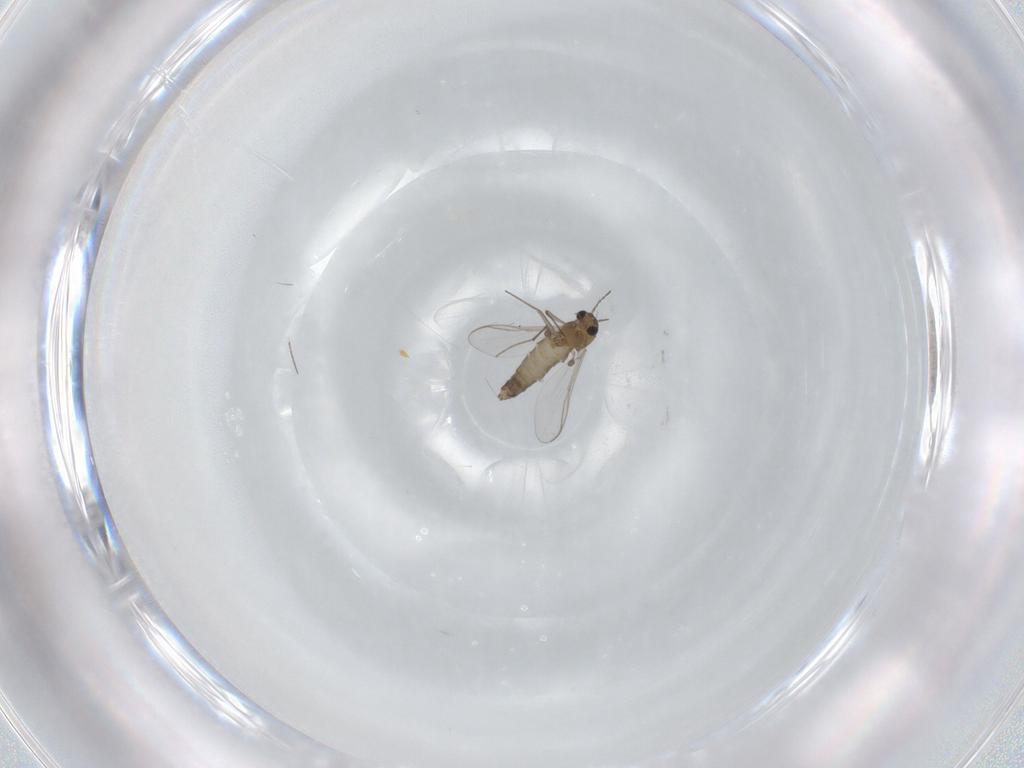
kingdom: Animalia
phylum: Arthropoda
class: Insecta
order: Diptera
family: Chironomidae
